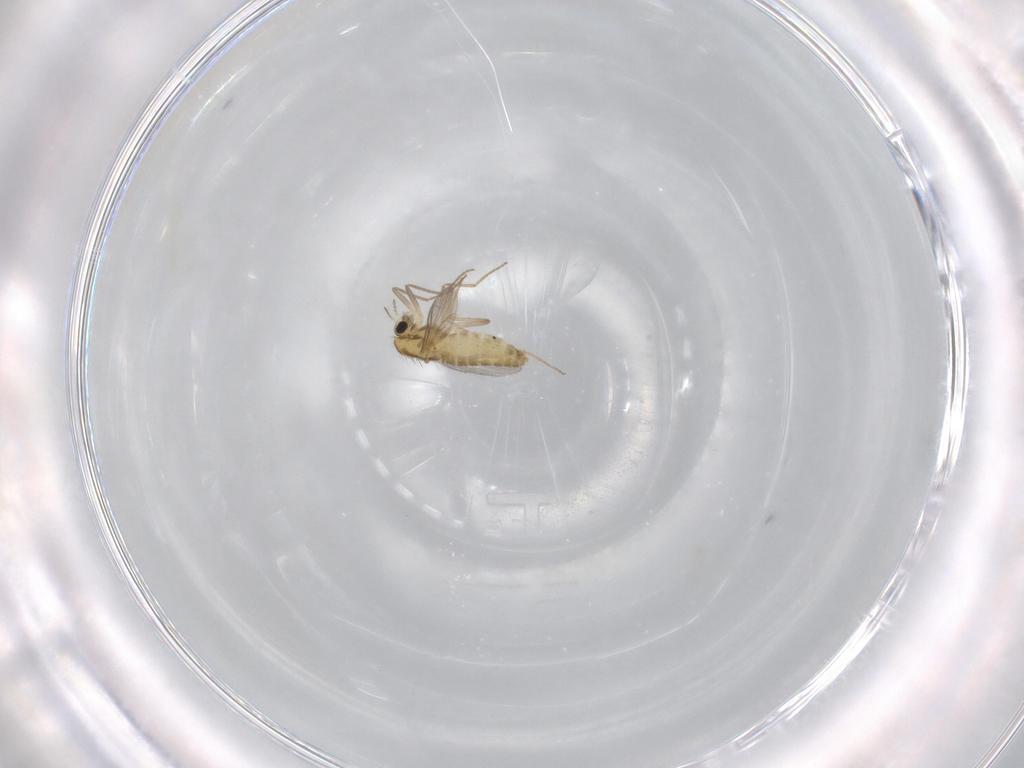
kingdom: Animalia
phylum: Arthropoda
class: Insecta
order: Diptera
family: Chironomidae
